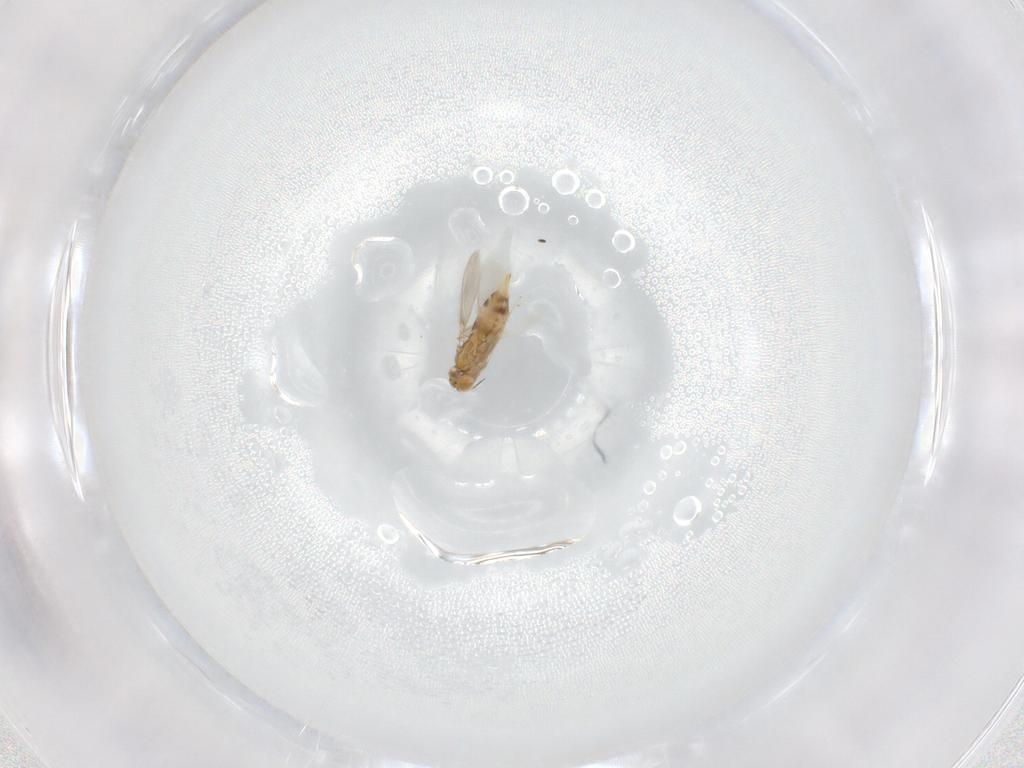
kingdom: Animalia
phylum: Arthropoda
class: Insecta
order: Hymenoptera
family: Aphelinidae
